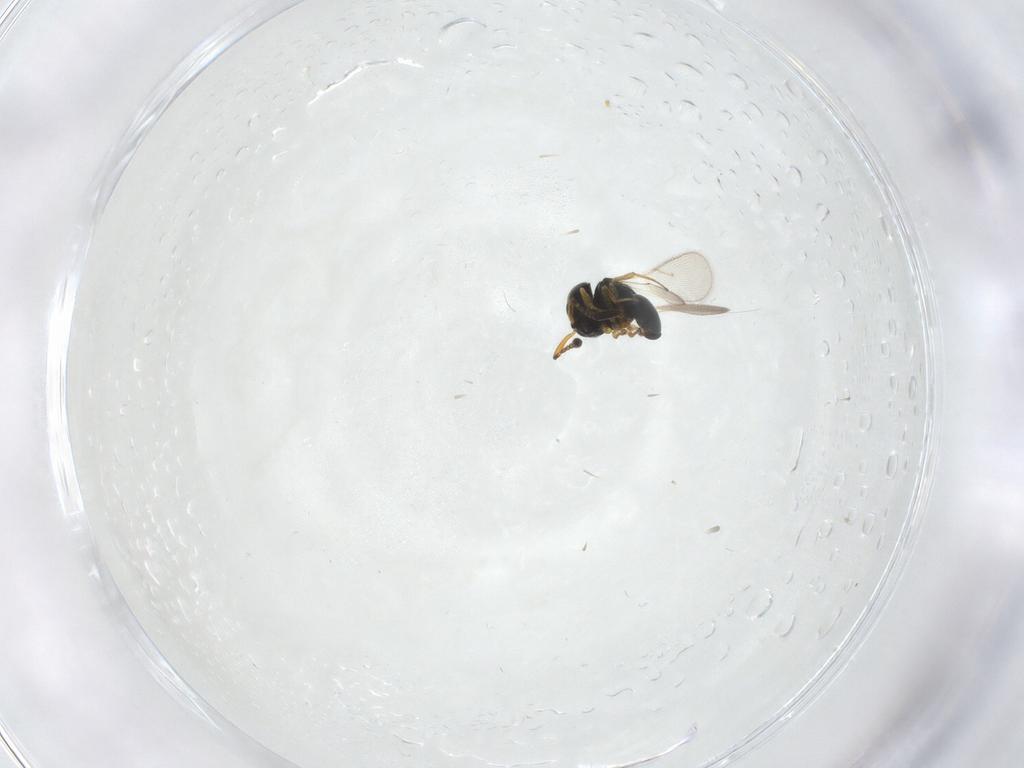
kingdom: Animalia
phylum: Arthropoda
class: Insecta
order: Hymenoptera
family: Scelionidae
